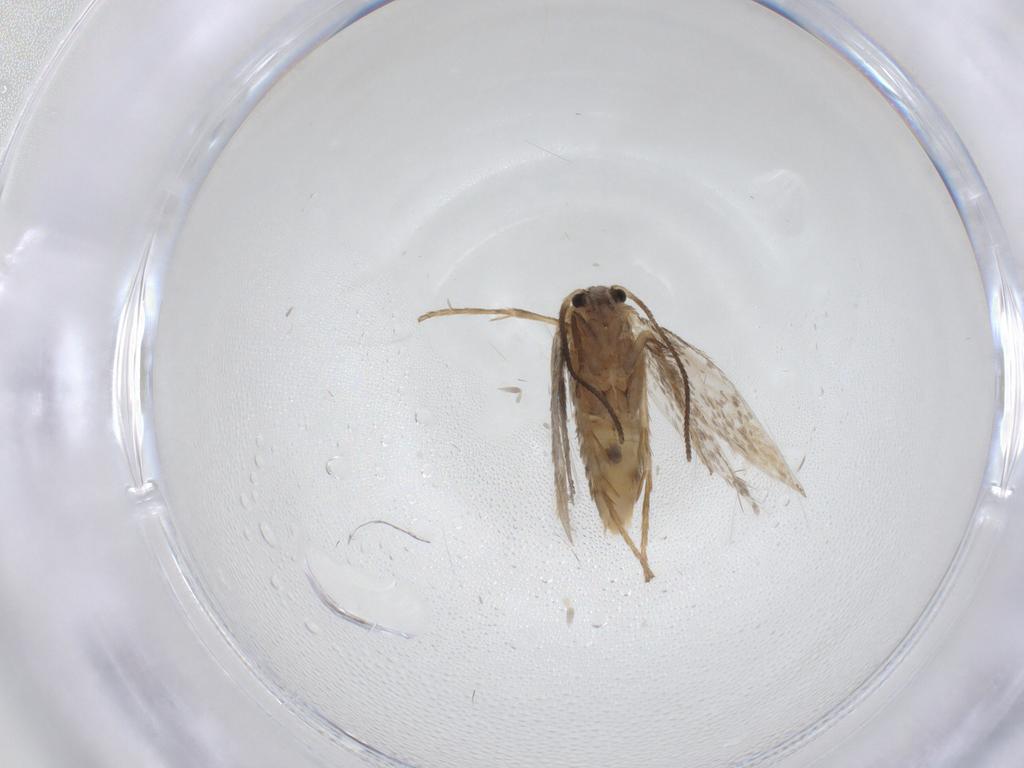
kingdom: Animalia
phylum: Arthropoda
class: Insecta
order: Lepidoptera
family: Nepticulidae
